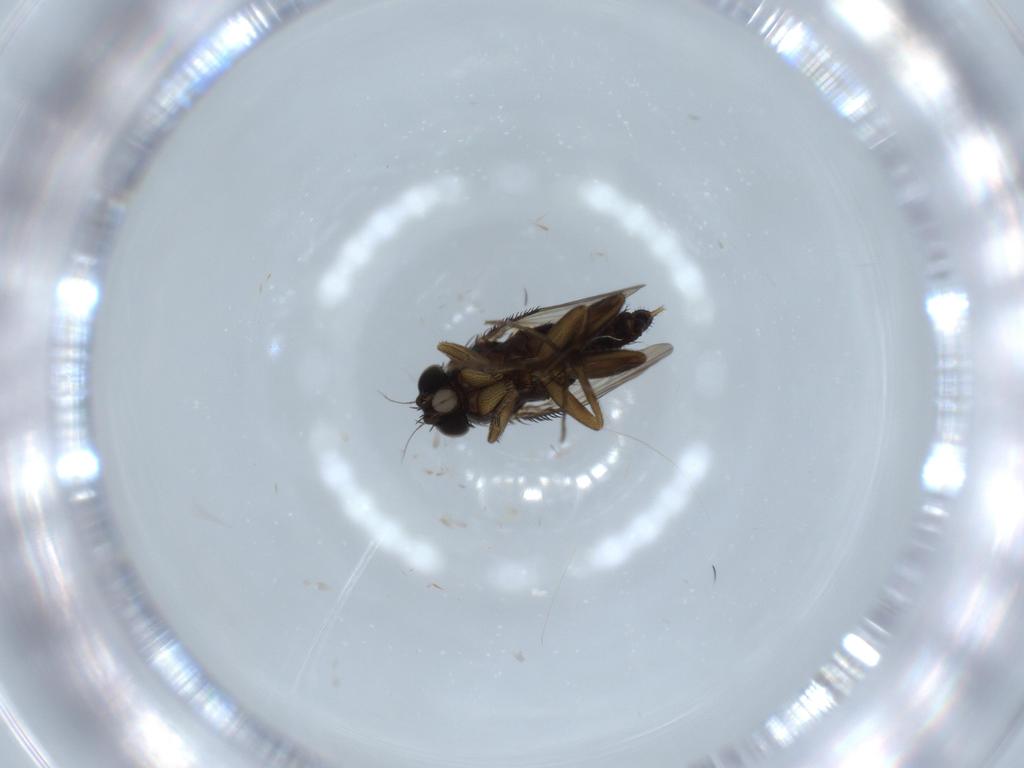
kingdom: Animalia
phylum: Arthropoda
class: Insecta
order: Diptera
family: Phoridae
